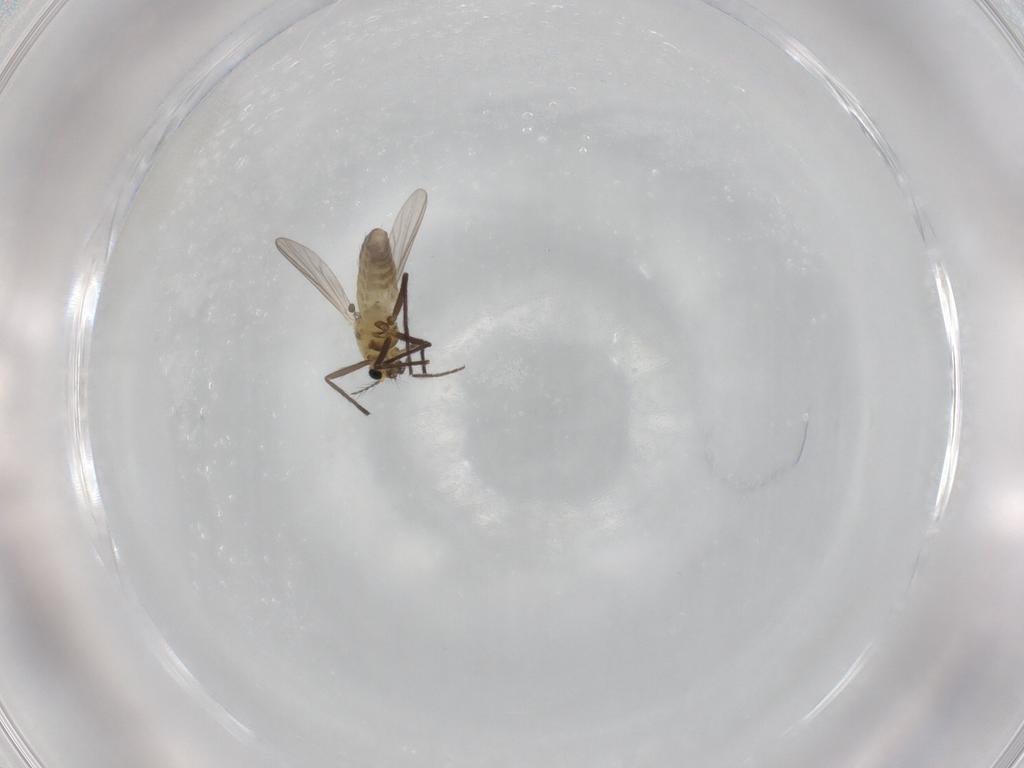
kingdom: Animalia
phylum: Arthropoda
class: Insecta
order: Diptera
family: Chironomidae
